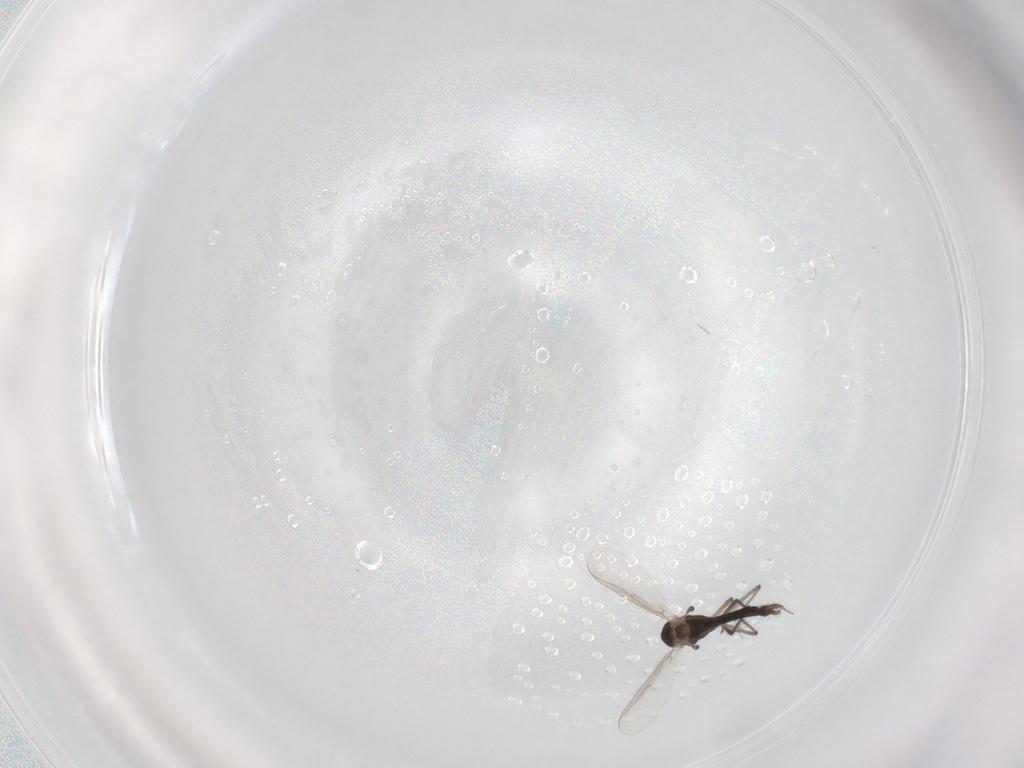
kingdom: Animalia
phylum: Arthropoda
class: Insecta
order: Diptera
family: Chironomidae
